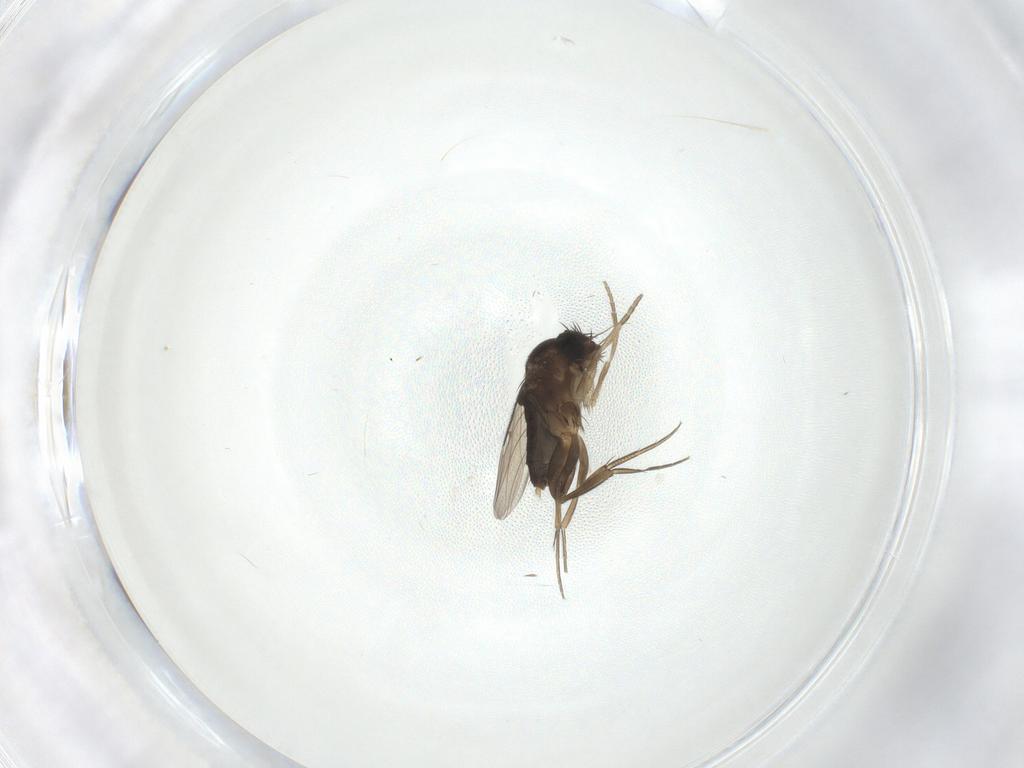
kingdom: Animalia
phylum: Arthropoda
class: Insecta
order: Diptera
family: Phoridae
